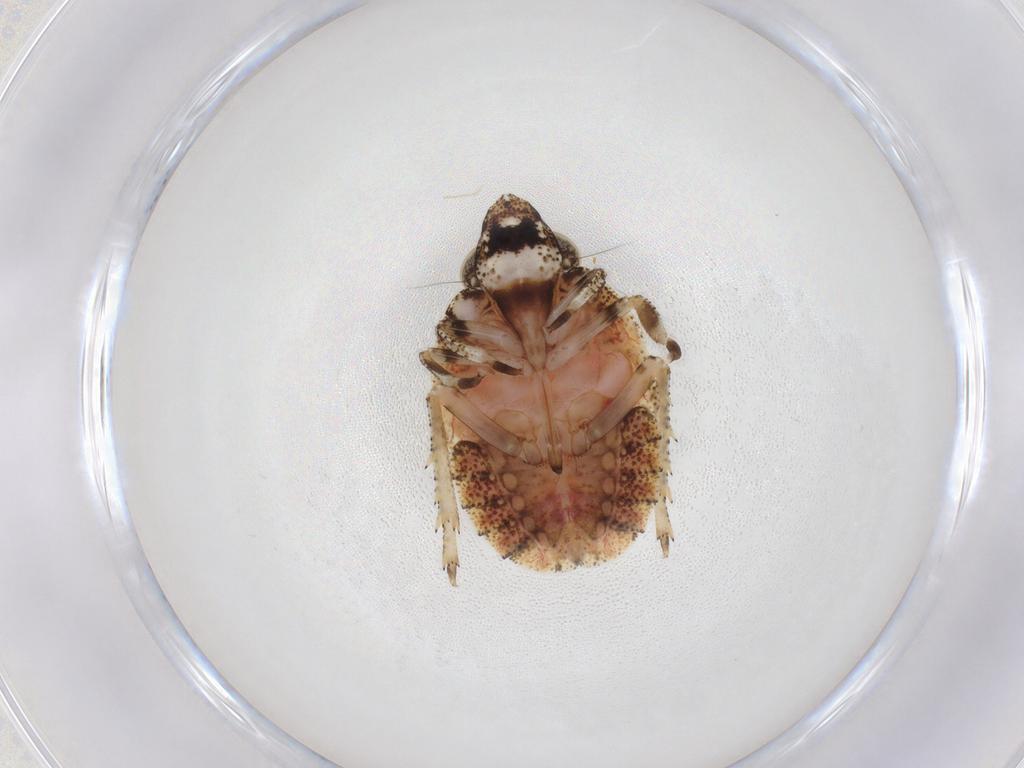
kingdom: Animalia
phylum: Arthropoda
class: Insecta
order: Hemiptera
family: Gengidae
